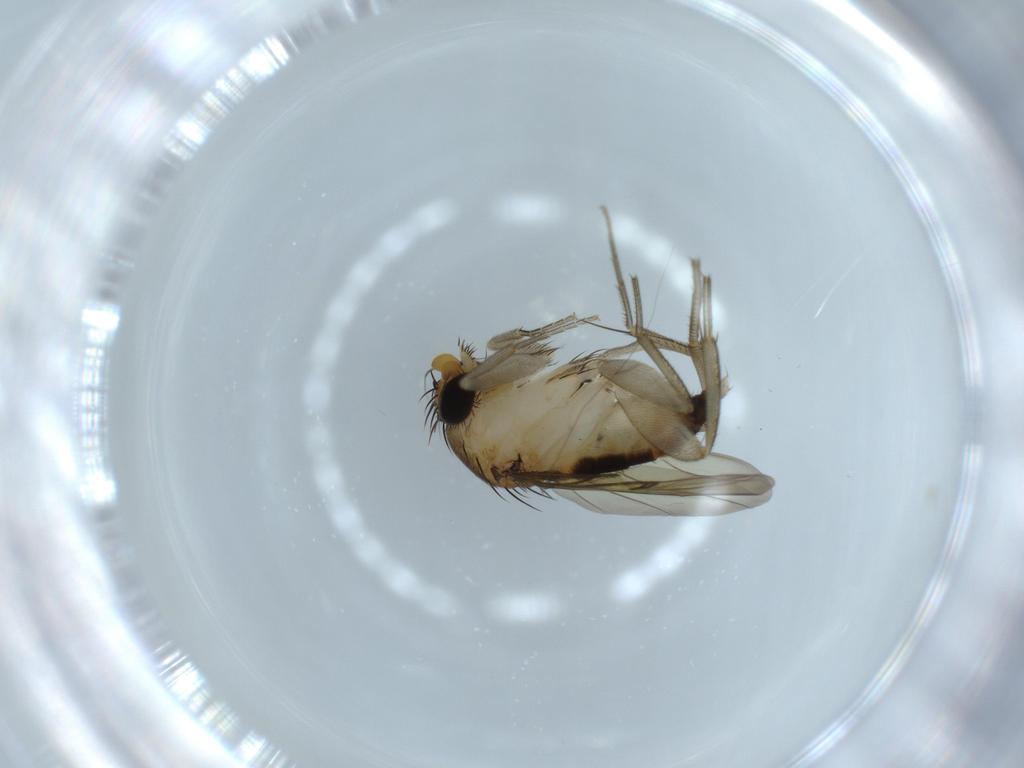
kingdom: Animalia
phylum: Arthropoda
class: Insecta
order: Diptera
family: Phoridae
